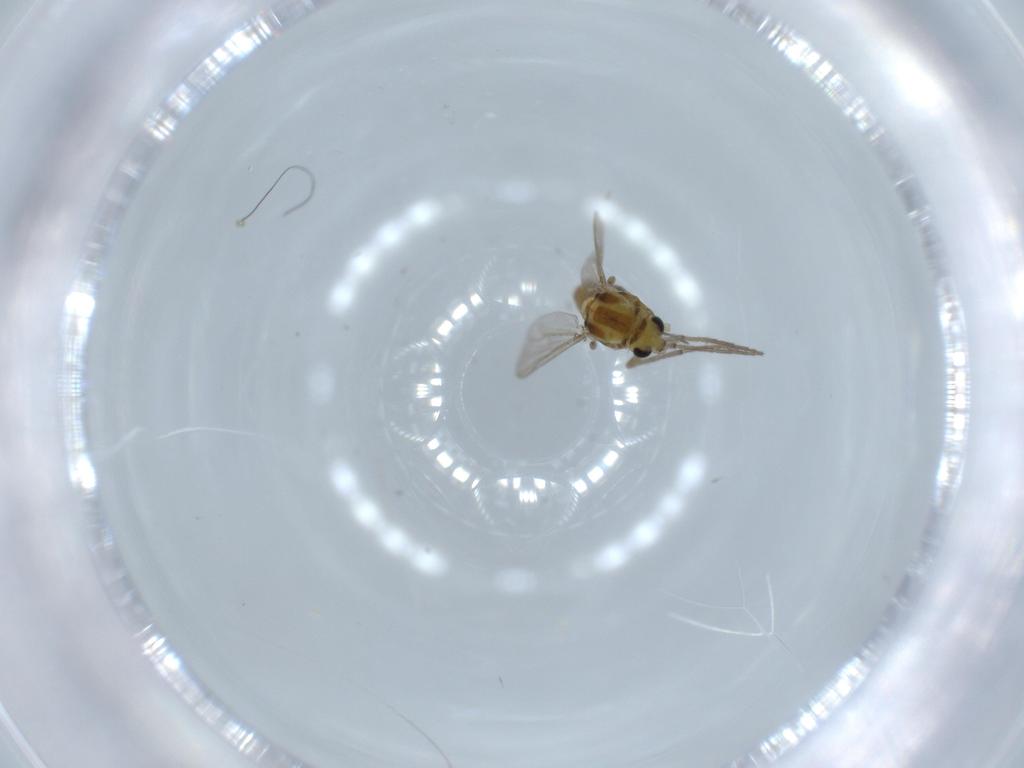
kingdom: Animalia
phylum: Arthropoda
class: Insecta
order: Diptera
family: Chironomidae
